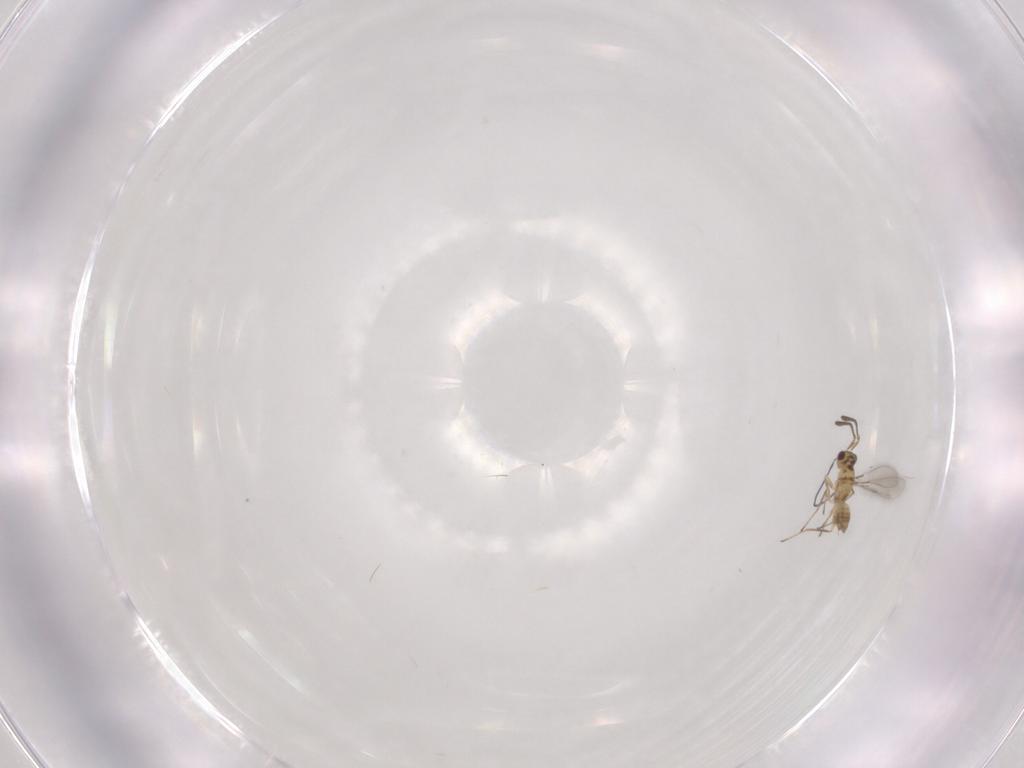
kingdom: Animalia
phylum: Arthropoda
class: Insecta
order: Hymenoptera
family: Mymaridae
